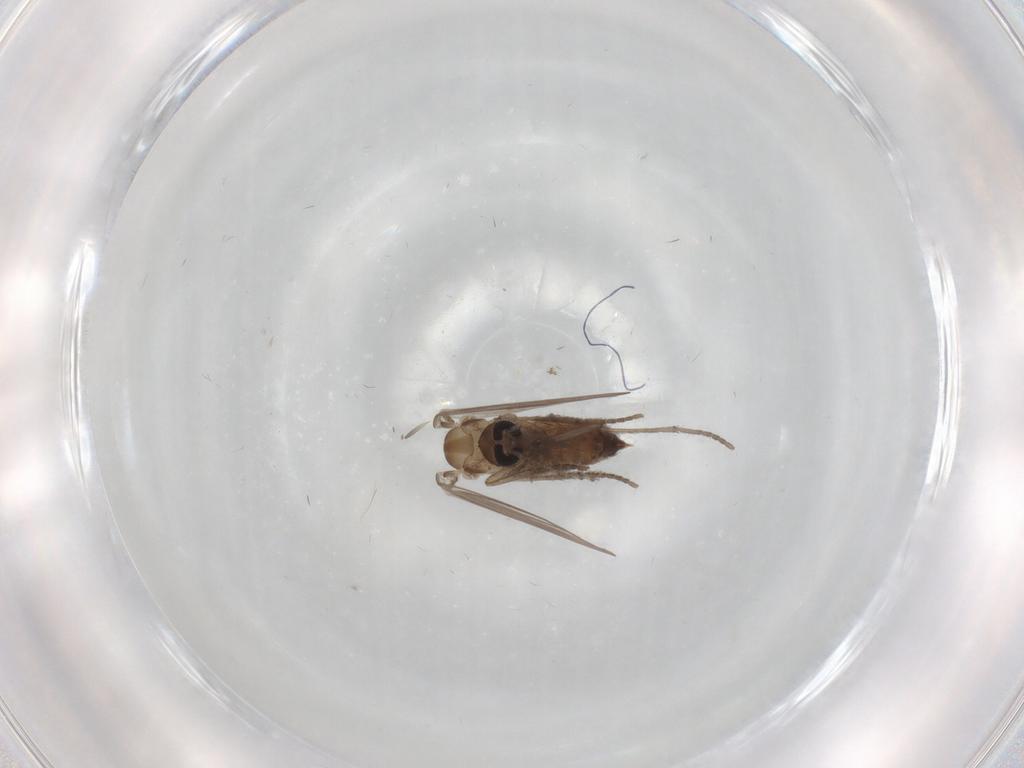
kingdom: Animalia
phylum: Arthropoda
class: Insecta
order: Diptera
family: Psychodidae
